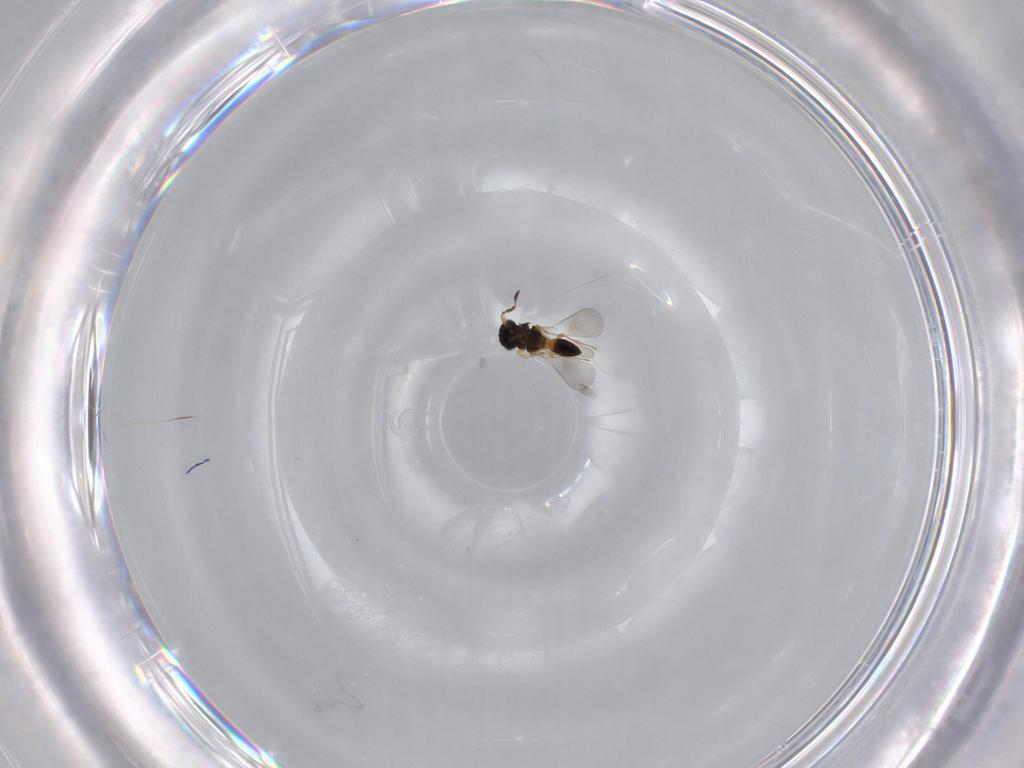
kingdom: Animalia
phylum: Arthropoda
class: Insecta
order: Hymenoptera
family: Platygastridae
